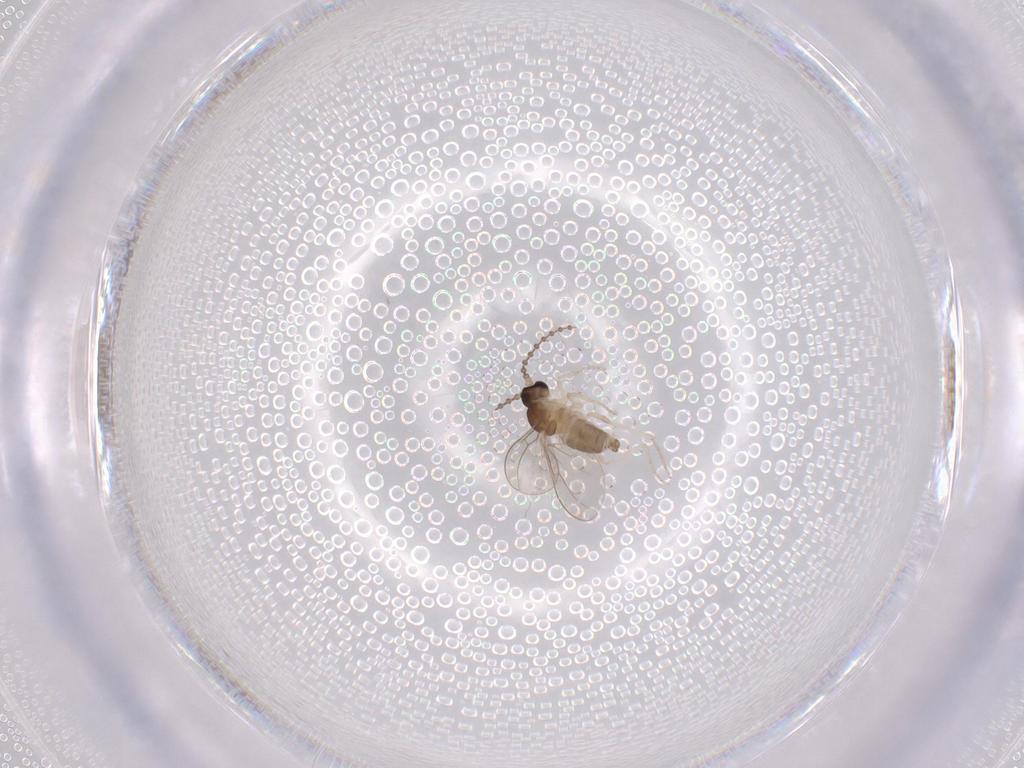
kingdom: Animalia
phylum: Arthropoda
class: Insecta
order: Diptera
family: Cecidomyiidae
